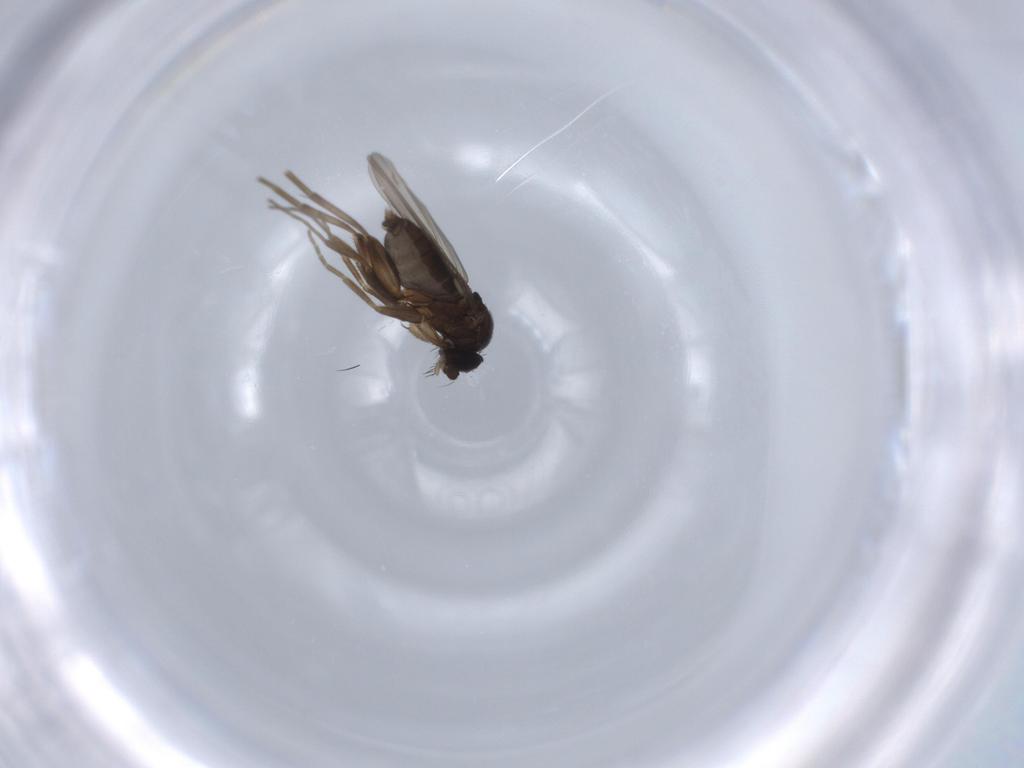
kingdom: Animalia
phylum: Arthropoda
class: Insecta
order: Diptera
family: Phoridae
